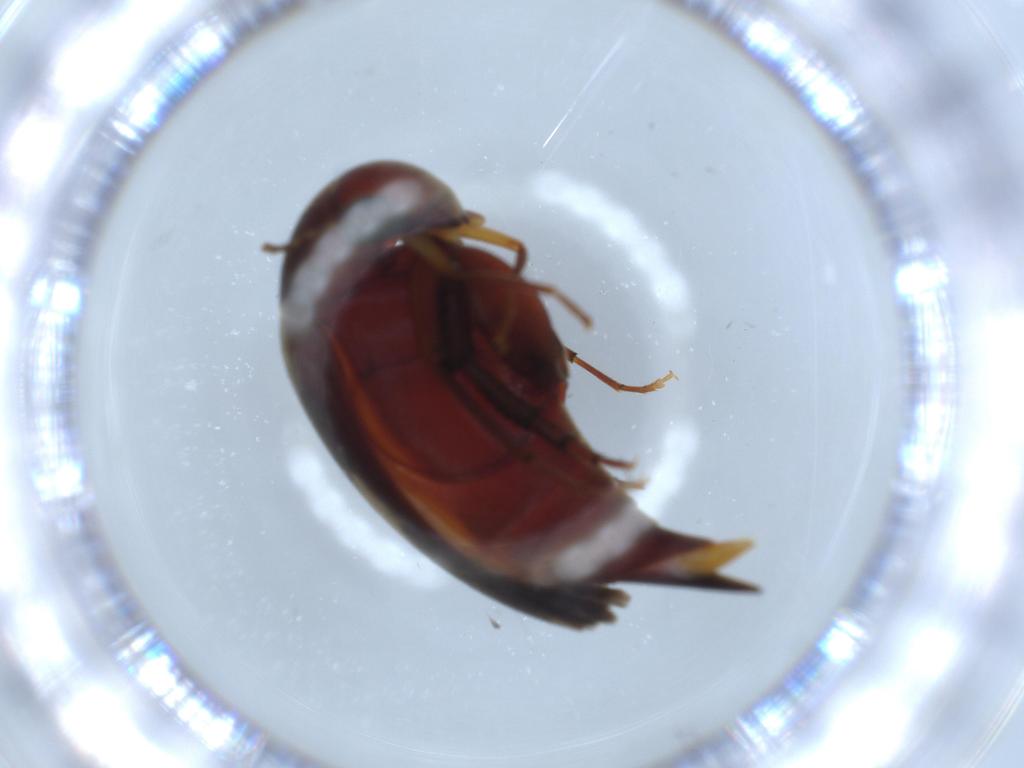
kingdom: Animalia
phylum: Arthropoda
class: Insecta
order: Coleoptera
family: Mordellidae
